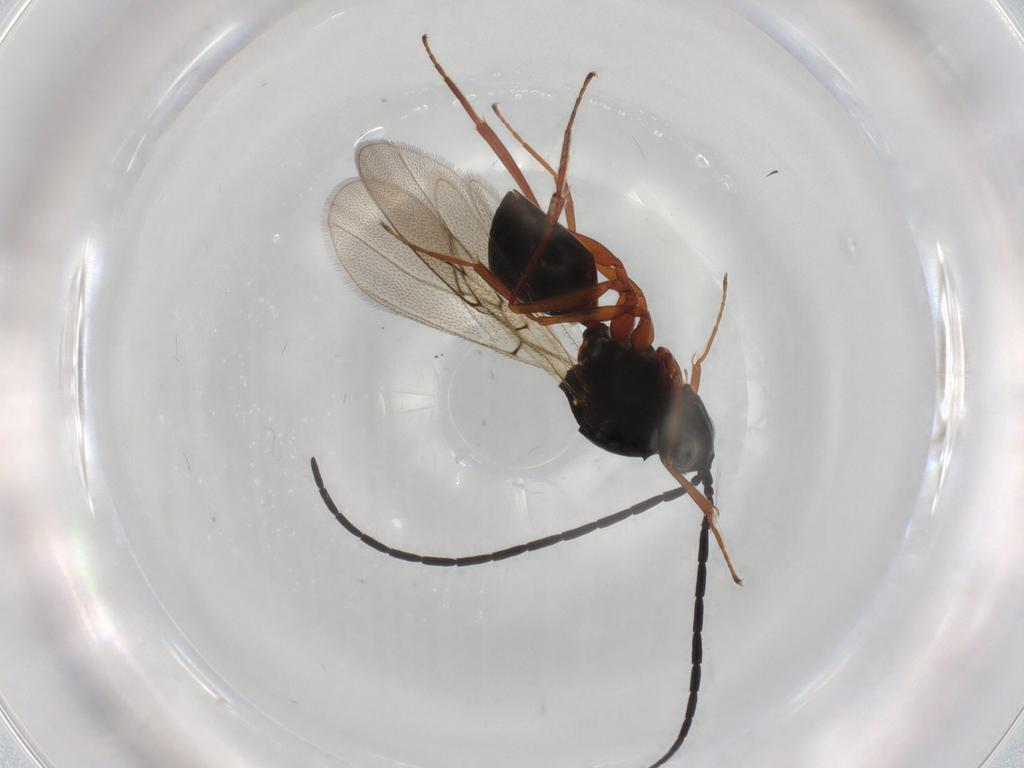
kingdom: Animalia
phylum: Arthropoda
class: Insecta
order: Hymenoptera
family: Figitidae
